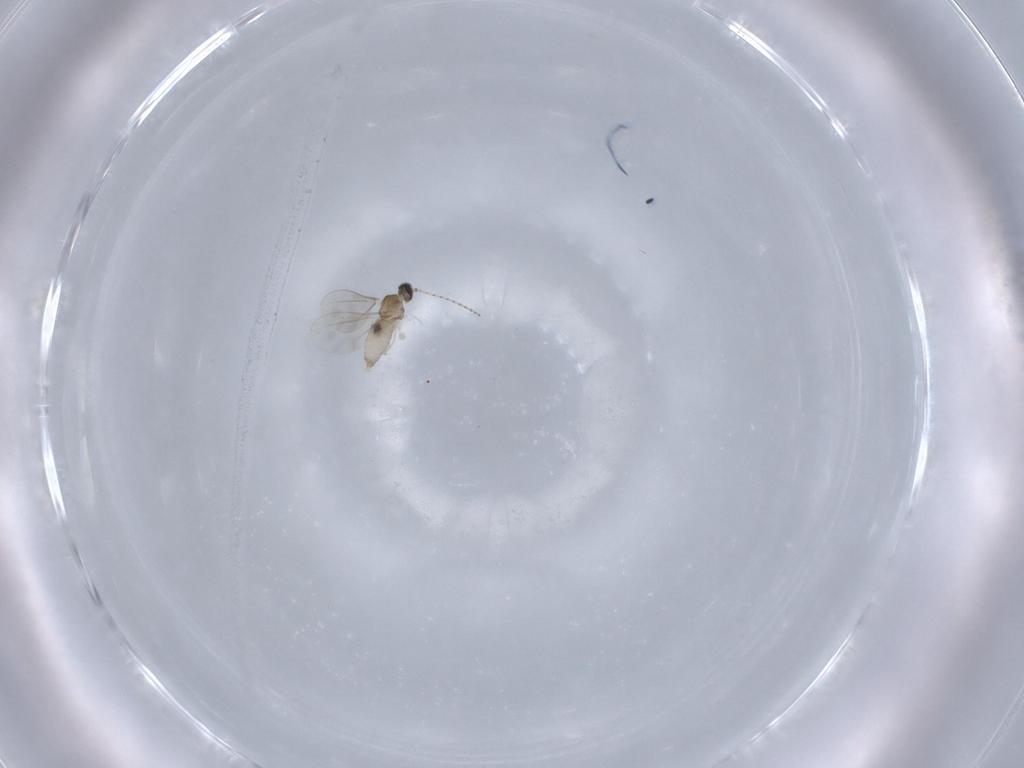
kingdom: Animalia
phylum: Arthropoda
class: Insecta
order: Diptera
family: Cecidomyiidae
